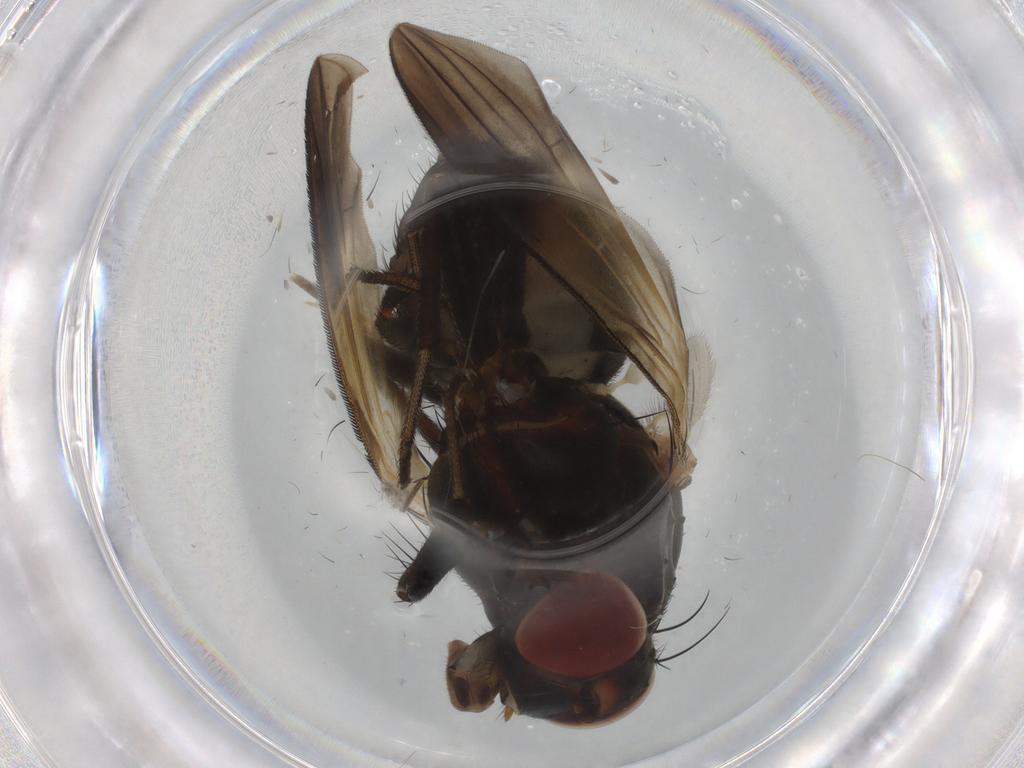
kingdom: Animalia
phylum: Arthropoda
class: Insecta
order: Diptera
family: Lauxaniidae
